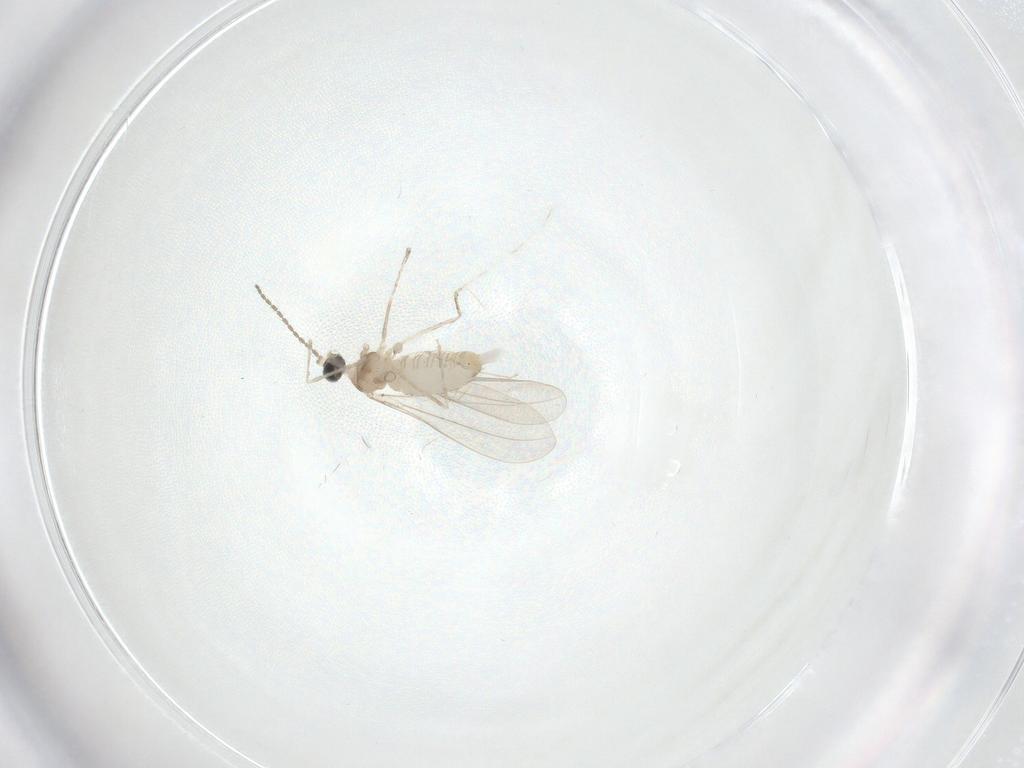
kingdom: Animalia
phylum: Arthropoda
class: Insecta
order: Diptera
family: Cecidomyiidae
